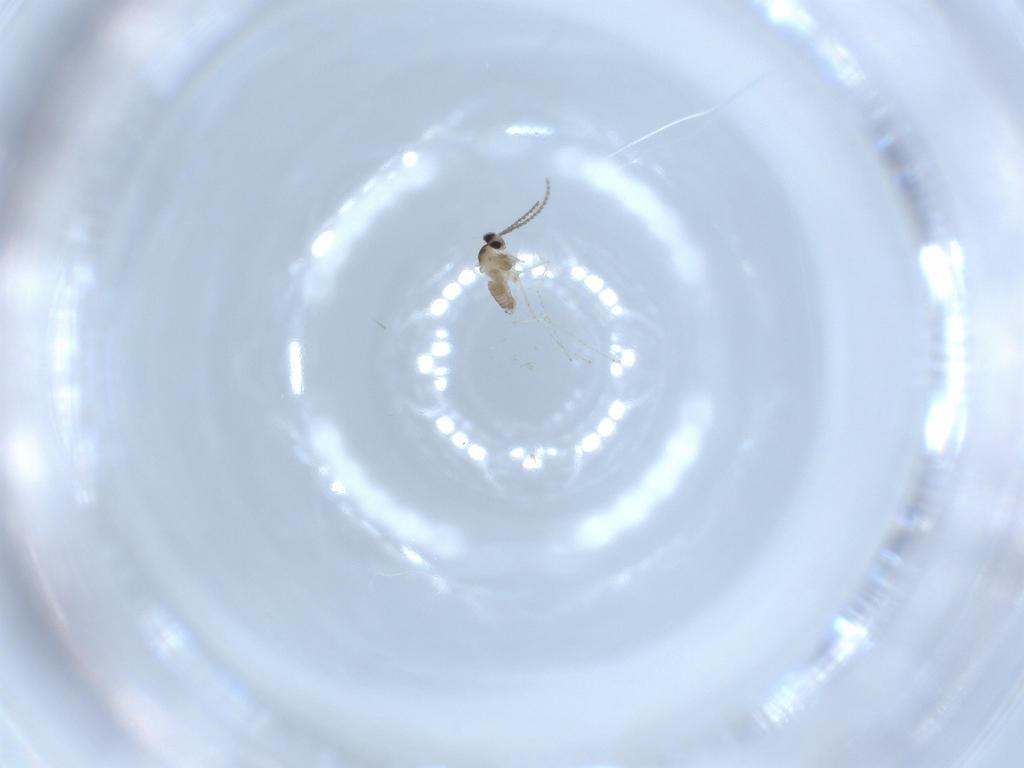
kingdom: Animalia
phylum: Arthropoda
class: Insecta
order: Diptera
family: Cecidomyiidae
